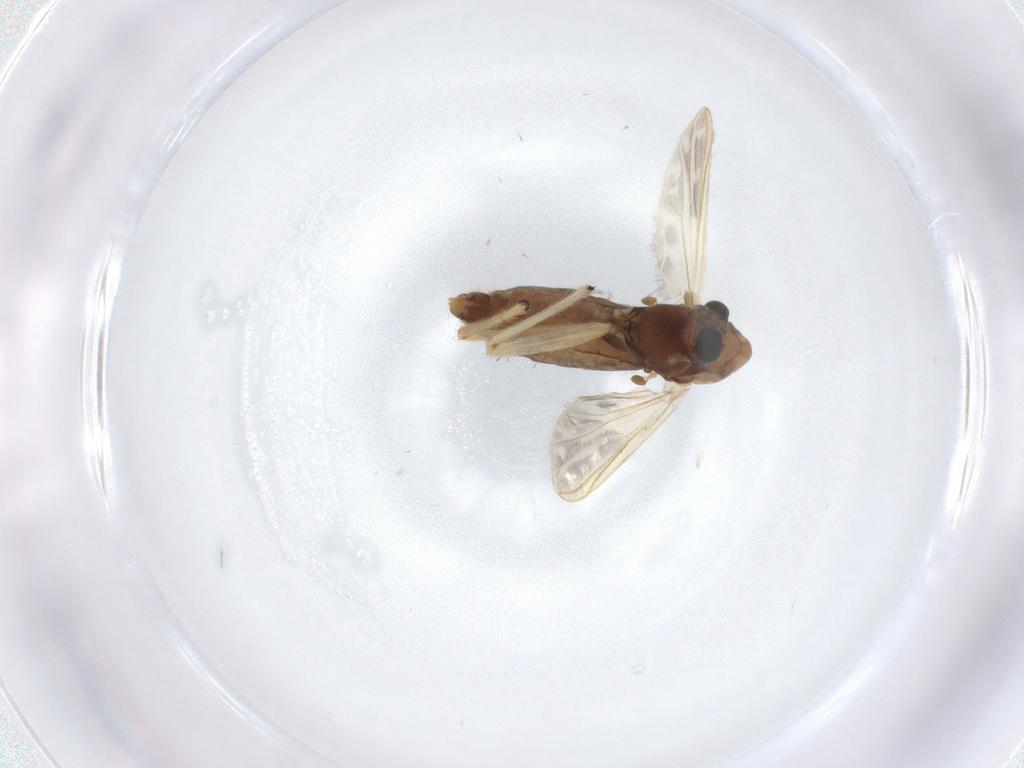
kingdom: Animalia
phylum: Arthropoda
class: Insecta
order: Diptera
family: Chironomidae
